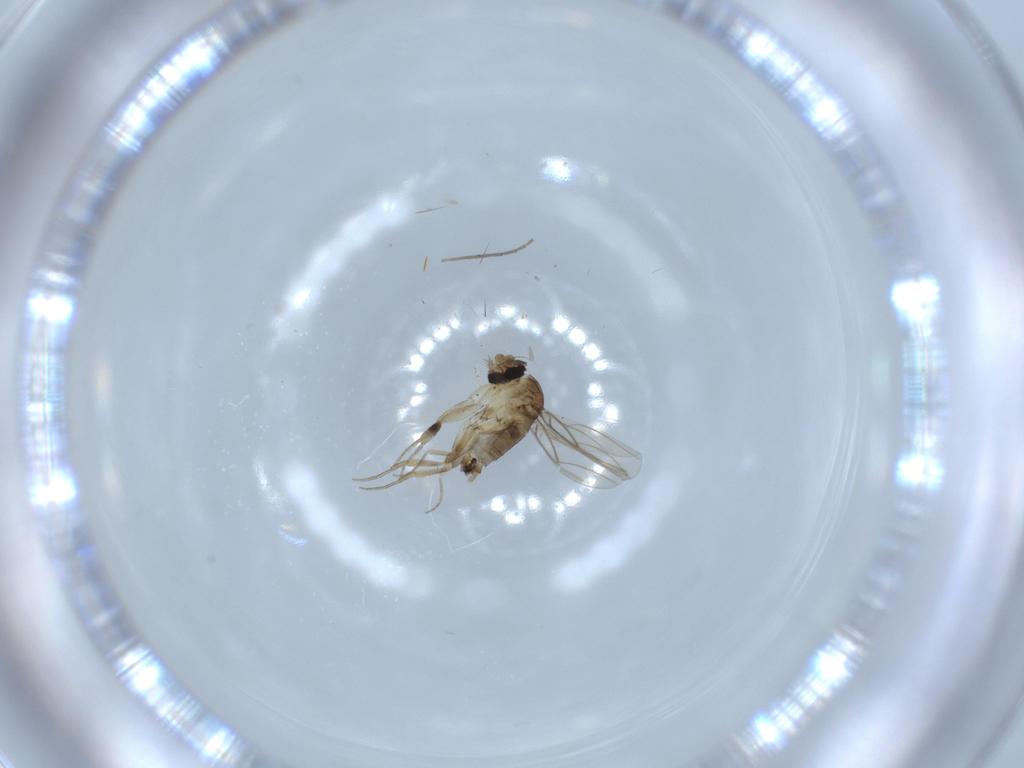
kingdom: Animalia
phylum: Arthropoda
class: Insecta
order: Diptera
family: Phoridae
